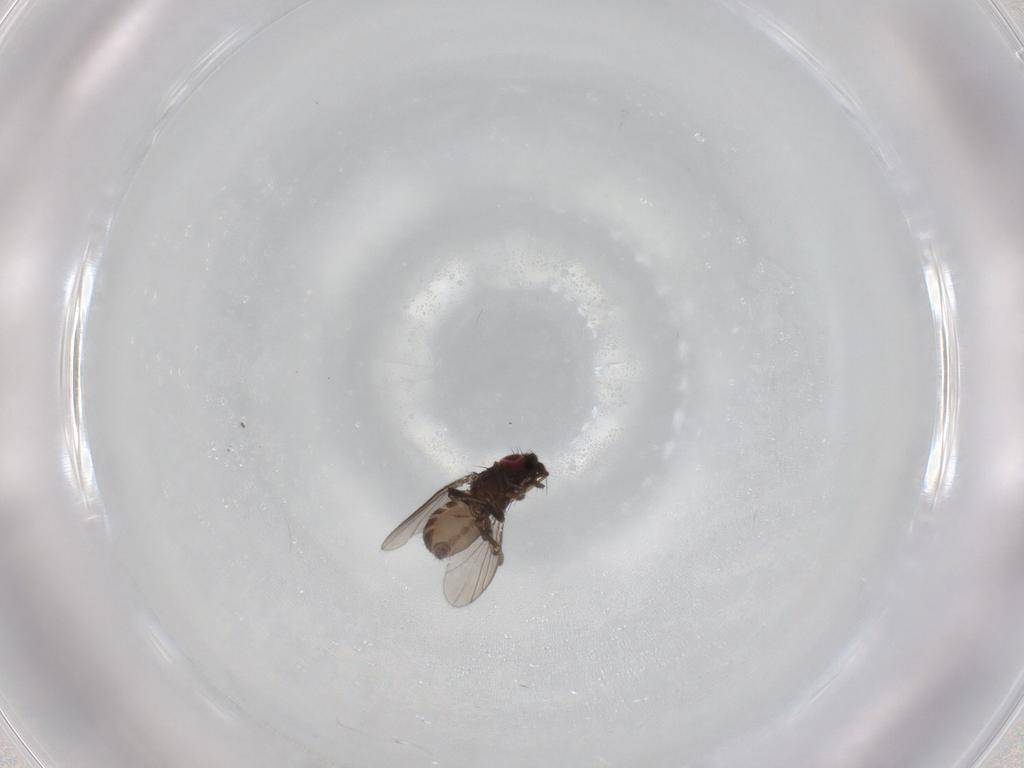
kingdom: Animalia
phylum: Arthropoda
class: Insecta
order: Diptera
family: Milichiidae
